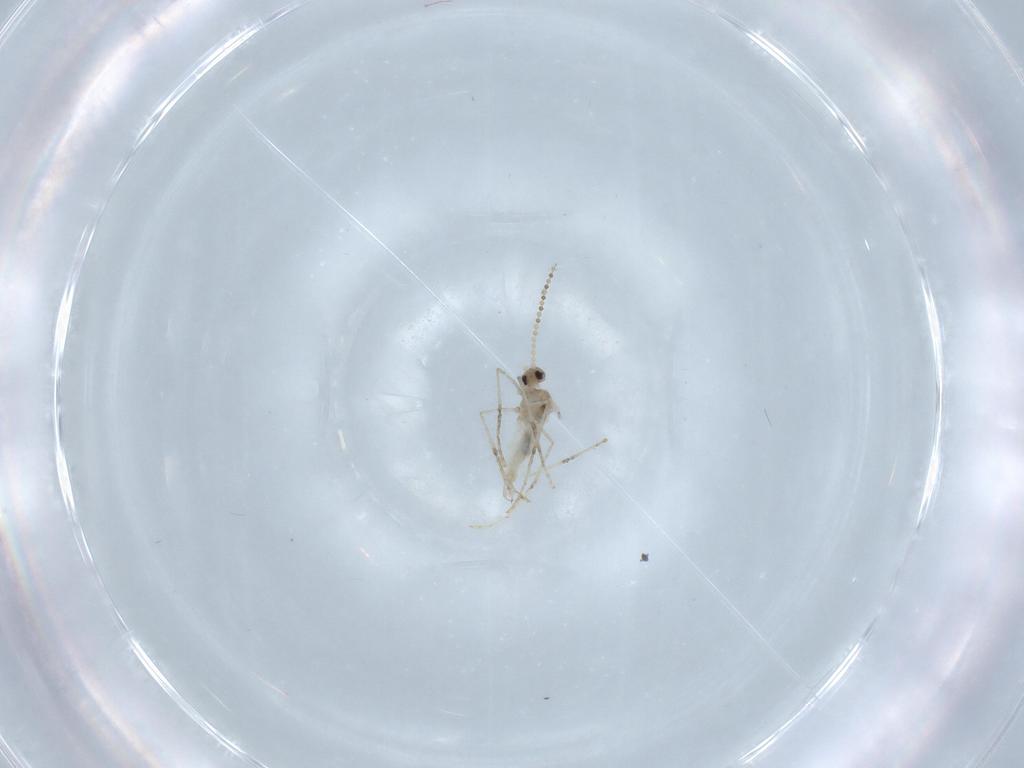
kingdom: Animalia
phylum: Arthropoda
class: Insecta
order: Diptera
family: Cecidomyiidae
